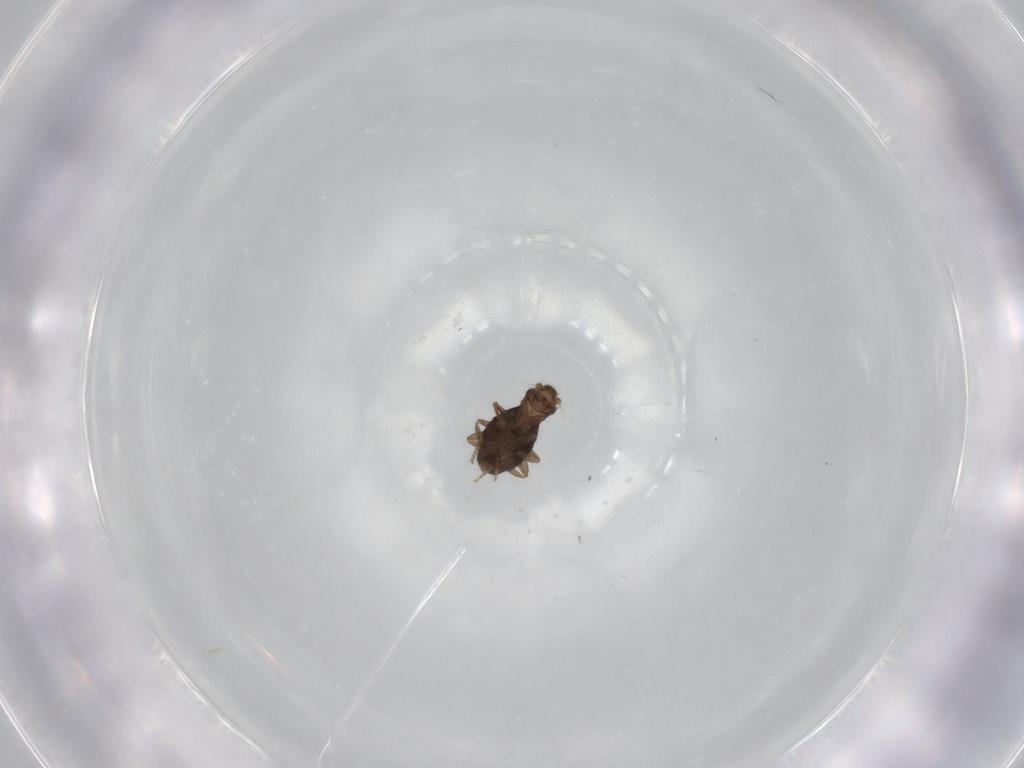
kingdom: Animalia
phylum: Arthropoda
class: Insecta
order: Diptera
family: Chironomidae
